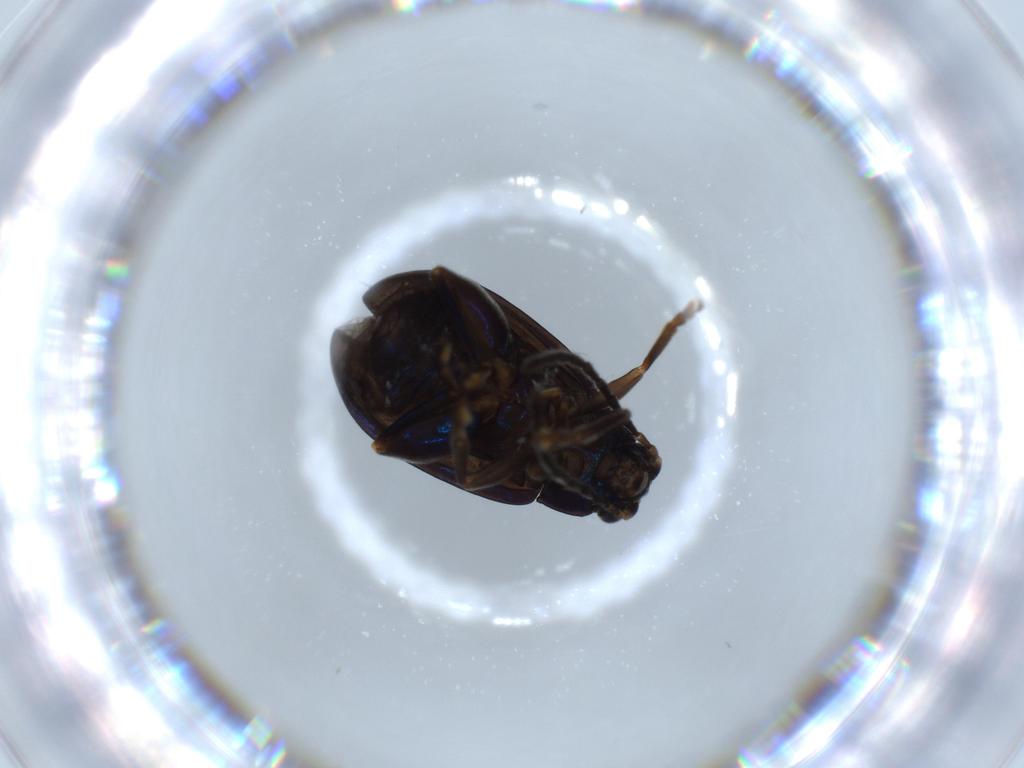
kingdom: Animalia
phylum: Arthropoda
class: Insecta
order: Coleoptera
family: Chrysomelidae
